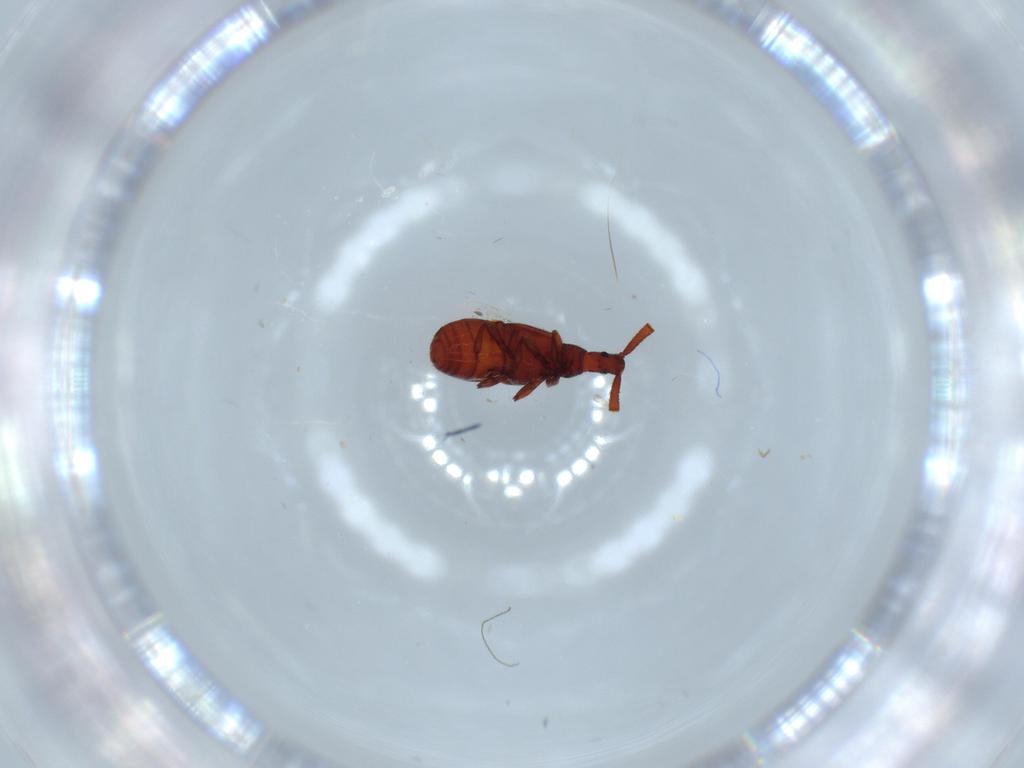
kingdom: Animalia
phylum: Arthropoda
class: Insecta
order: Coleoptera
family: Staphylinidae
